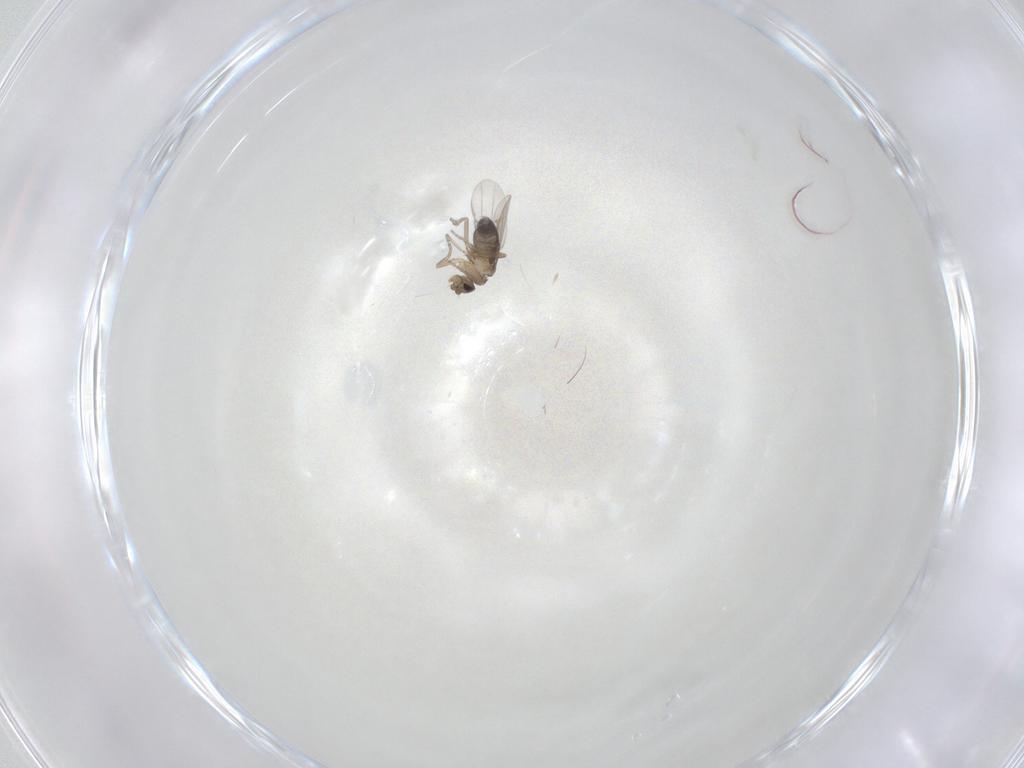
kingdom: Animalia
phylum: Arthropoda
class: Insecta
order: Diptera
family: Phoridae
